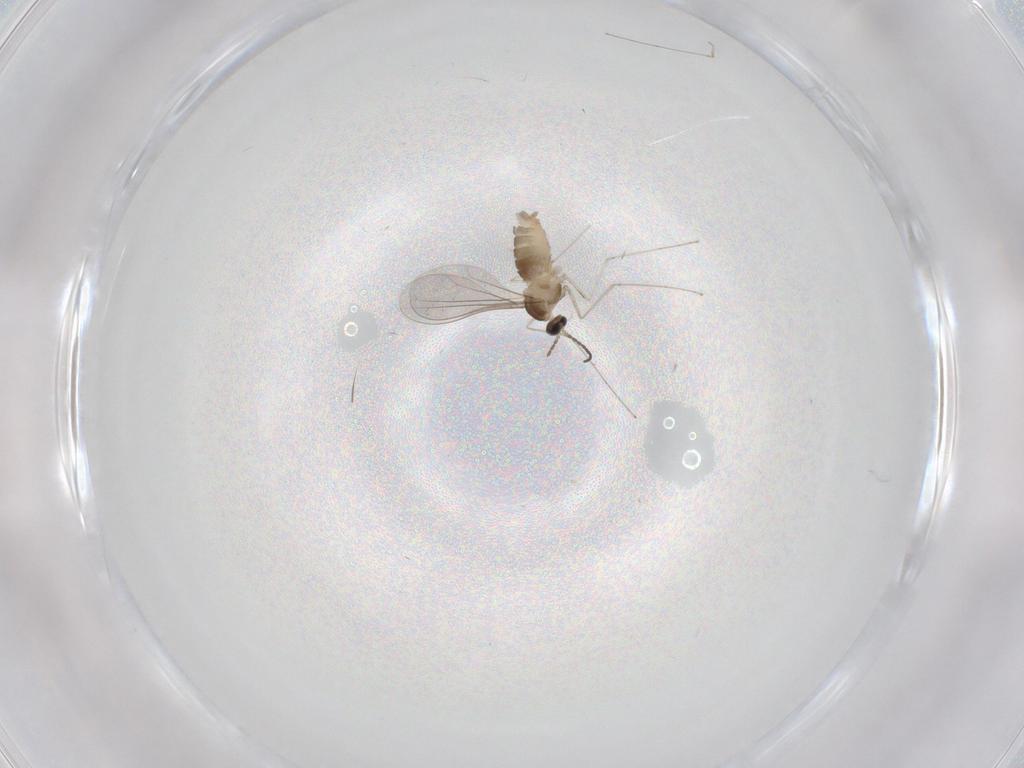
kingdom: Animalia
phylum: Arthropoda
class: Insecta
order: Diptera
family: Cecidomyiidae
